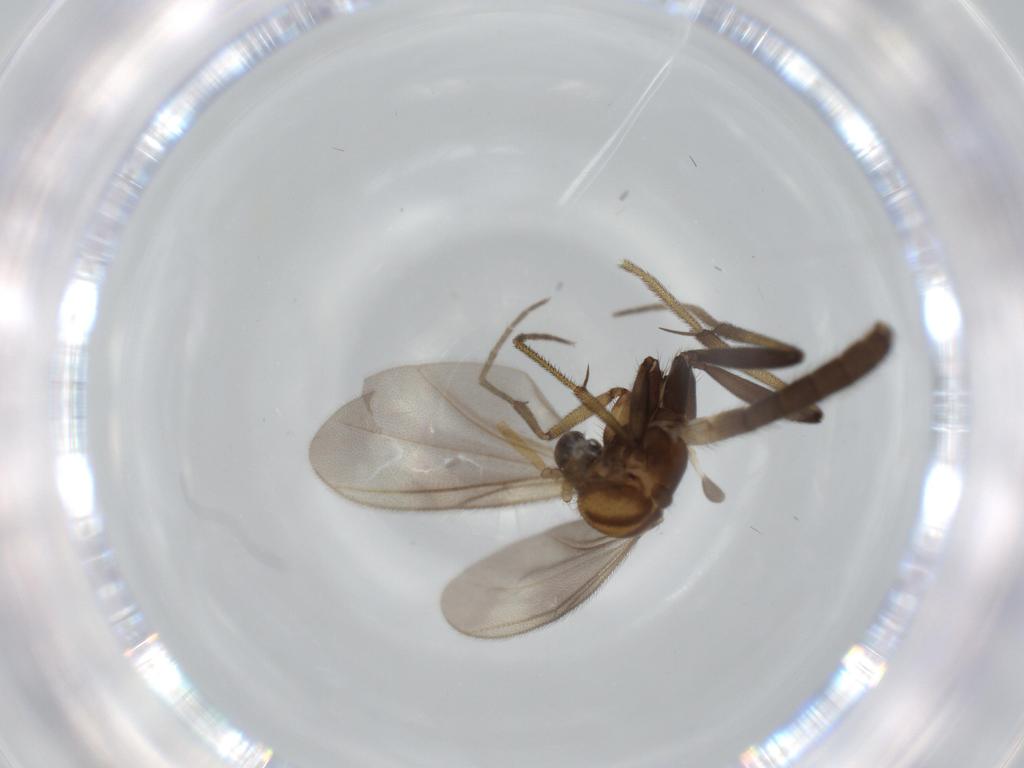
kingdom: Animalia
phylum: Arthropoda
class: Insecta
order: Diptera
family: Mycetophilidae
